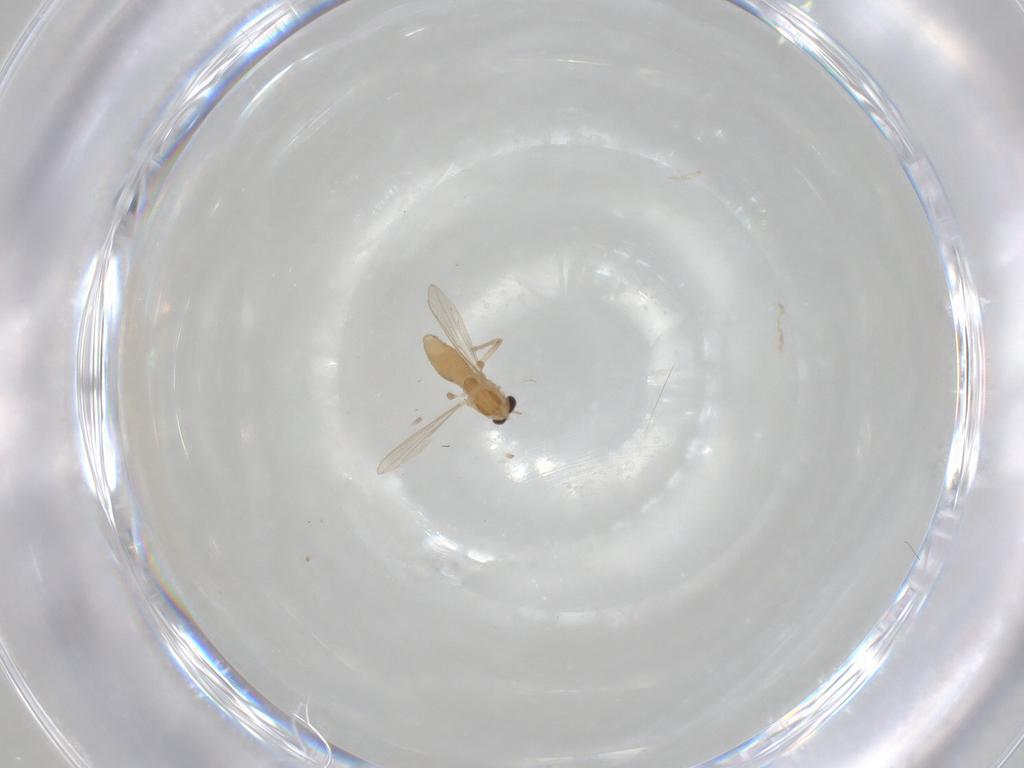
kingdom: Animalia
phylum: Arthropoda
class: Insecta
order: Diptera
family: Chironomidae
